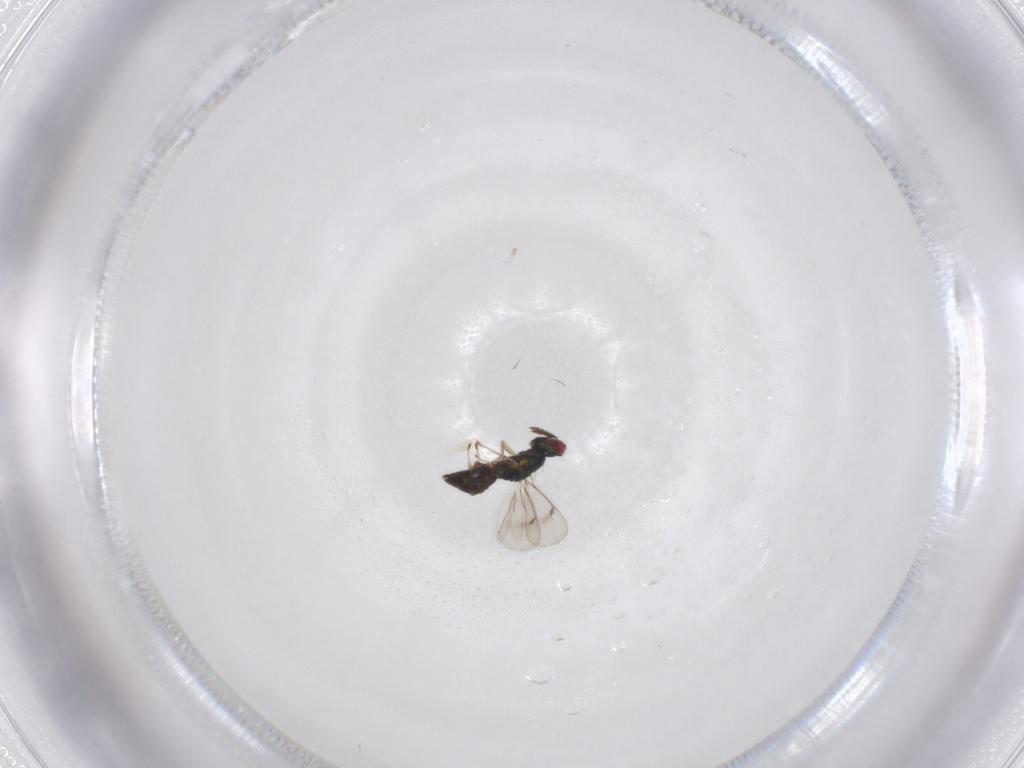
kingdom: Animalia
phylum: Arthropoda
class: Insecta
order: Hymenoptera
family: Eulophidae
